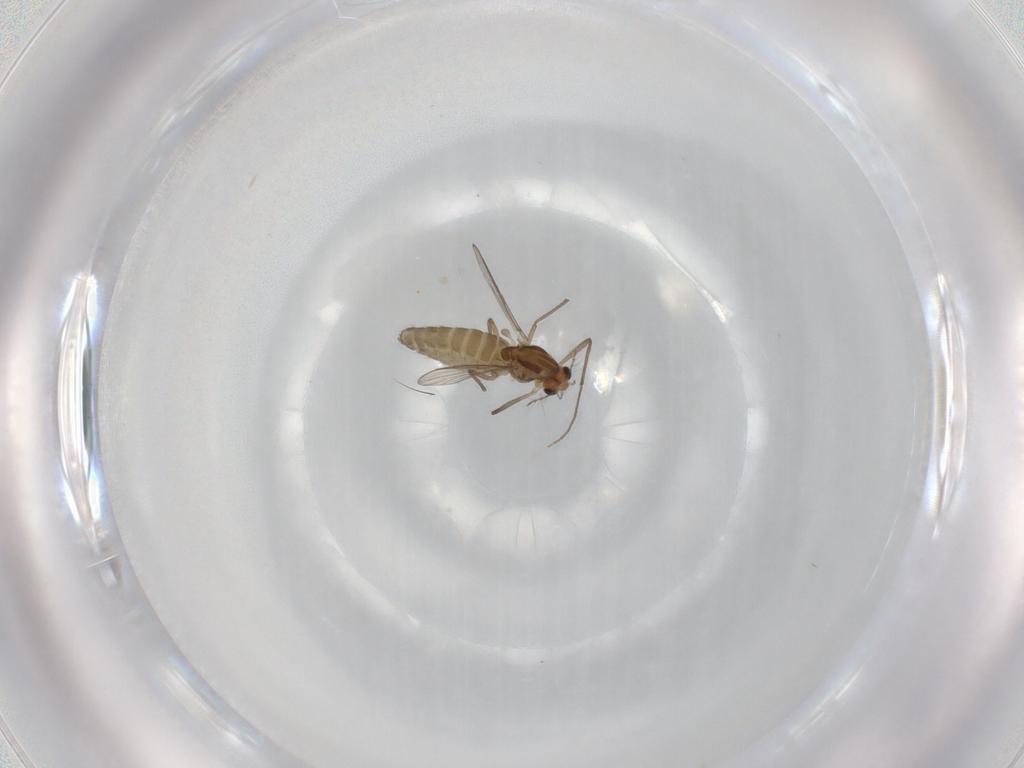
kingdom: Animalia
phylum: Arthropoda
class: Insecta
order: Diptera
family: Chironomidae
